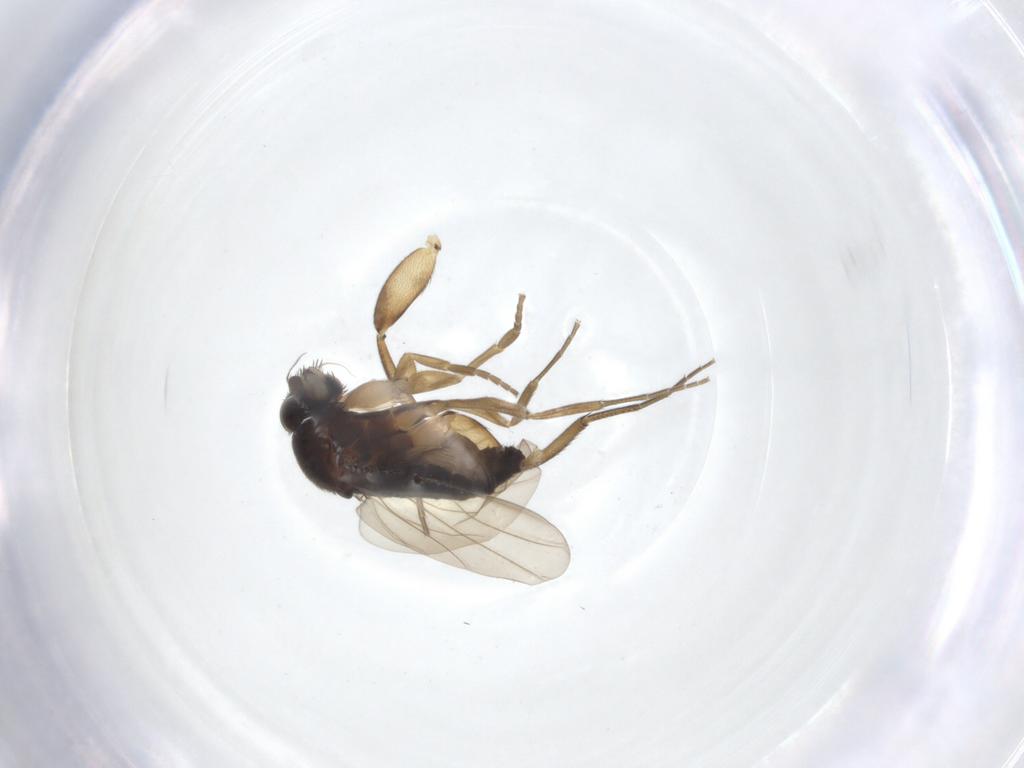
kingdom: Animalia
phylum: Arthropoda
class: Insecta
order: Diptera
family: Phoridae
